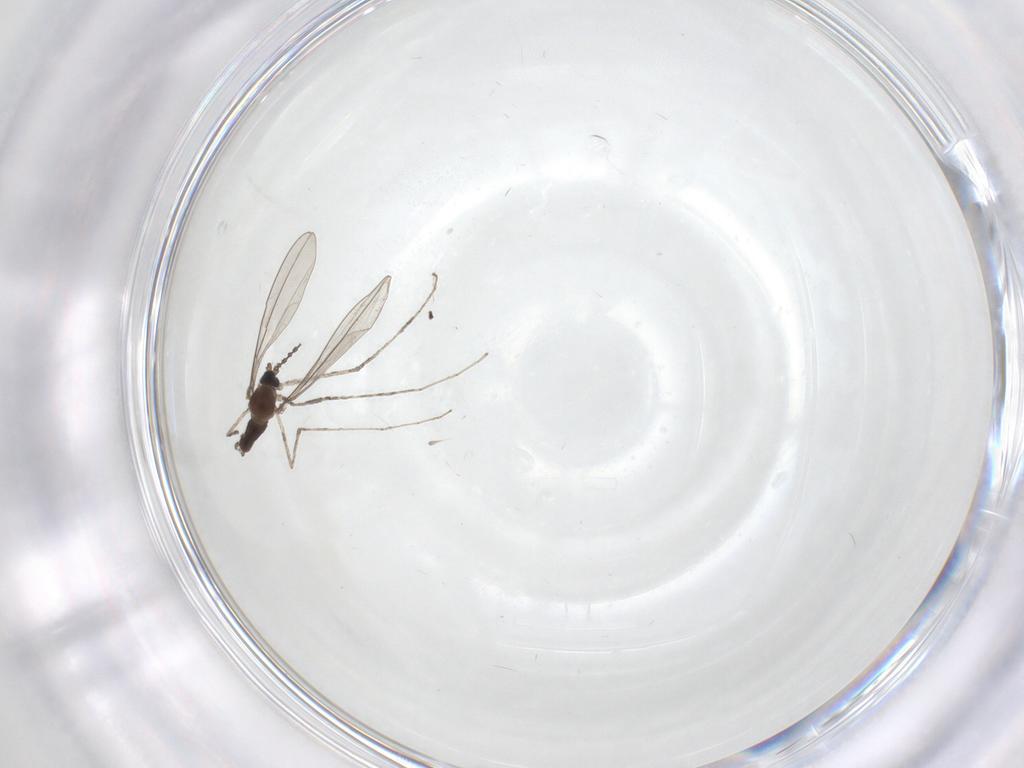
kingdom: Animalia
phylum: Arthropoda
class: Insecta
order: Diptera
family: Cecidomyiidae
